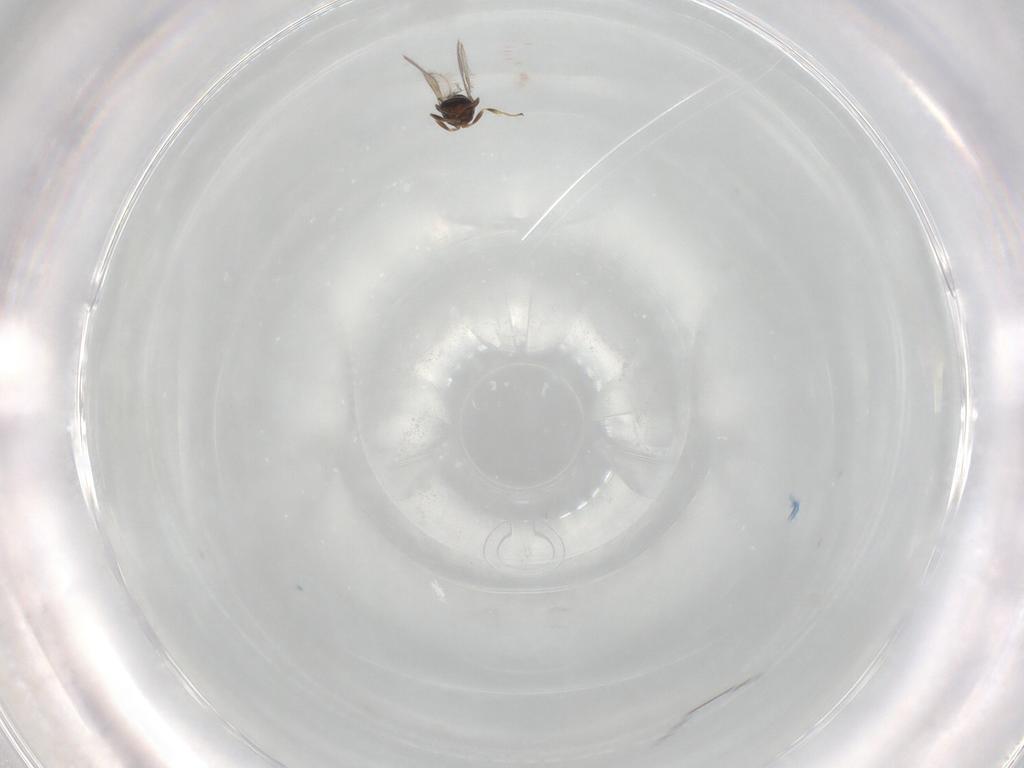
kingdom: Animalia
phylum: Arthropoda
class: Insecta
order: Hymenoptera
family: Scelionidae
